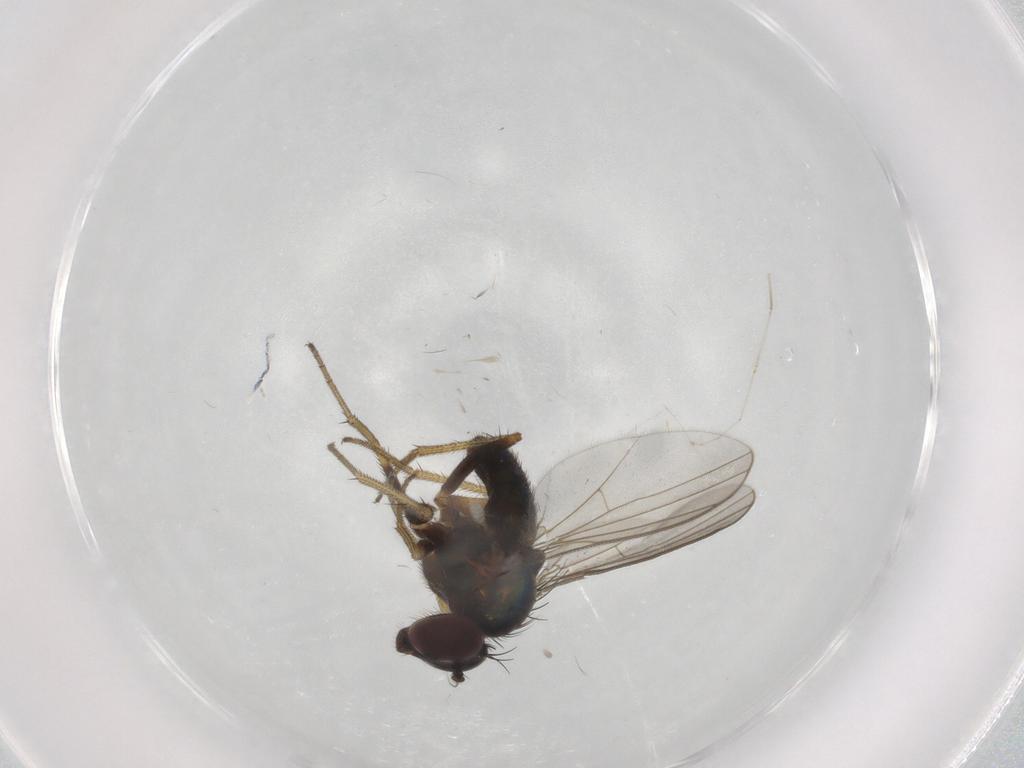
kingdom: Animalia
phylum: Arthropoda
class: Insecta
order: Diptera
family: Cecidomyiidae
